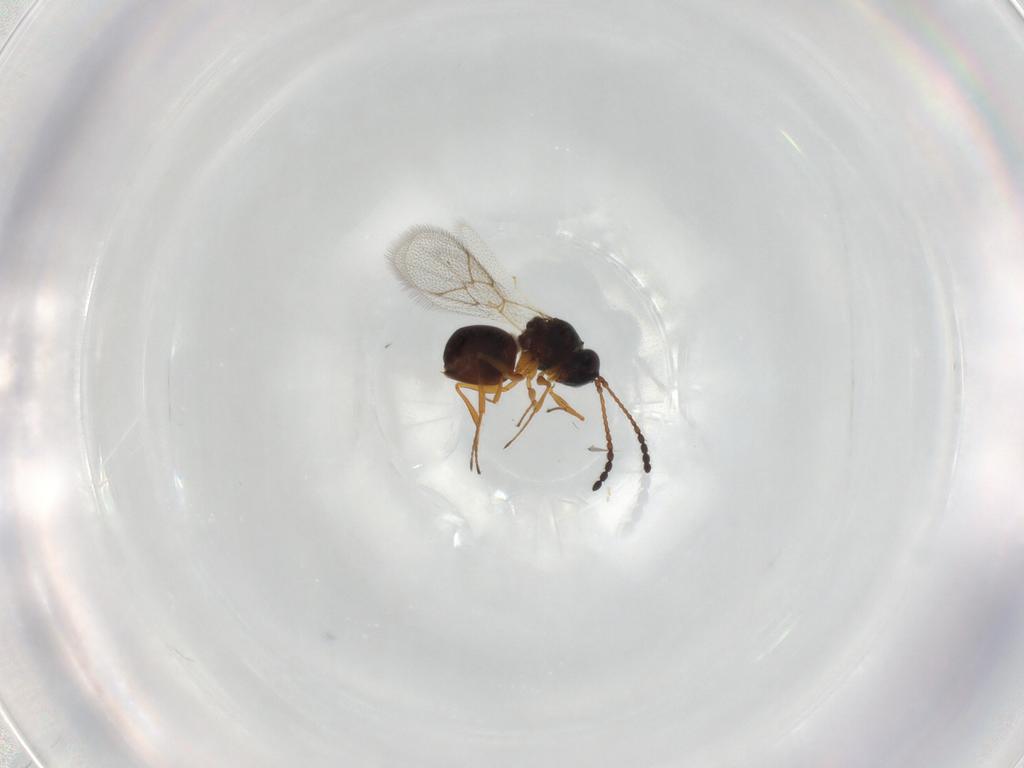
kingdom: Animalia
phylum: Arthropoda
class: Insecta
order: Hymenoptera
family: Figitidae
